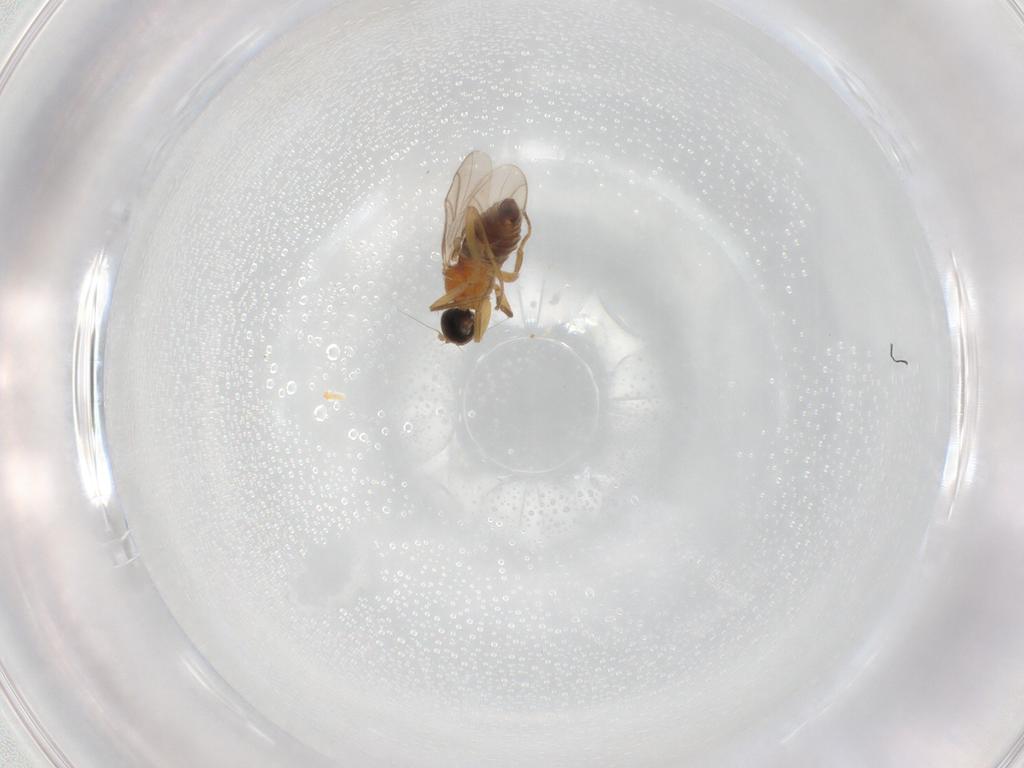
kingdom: Animalia
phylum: Arthropoda
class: Insecta
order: Diptera
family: Hybotidae
